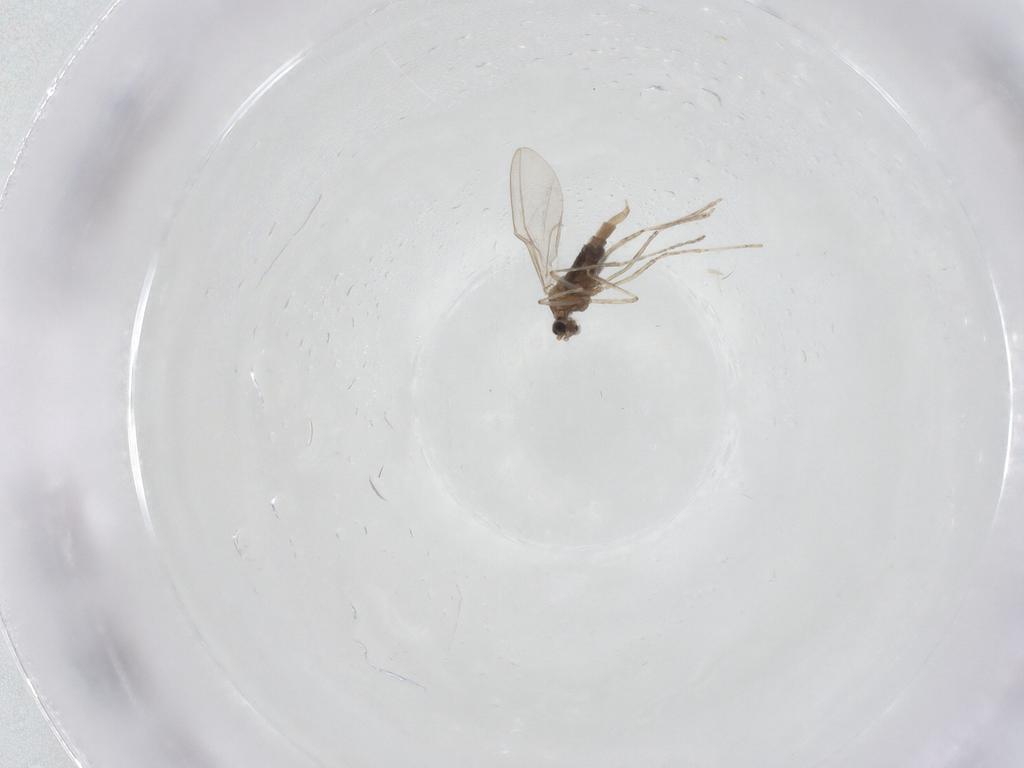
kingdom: Animalia
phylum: Arthropoda
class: Insecta
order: Diptera
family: Cecidomyiidae
